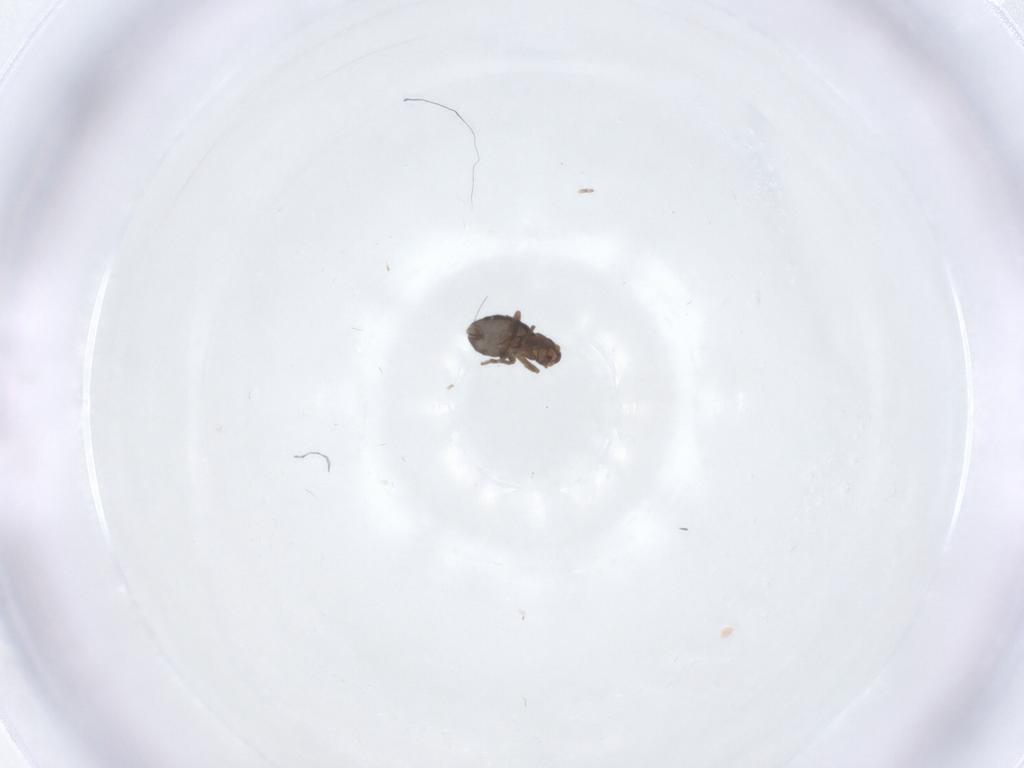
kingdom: Animalia
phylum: Arthropoda
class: Insecta
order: Diptera
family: Phoridae
